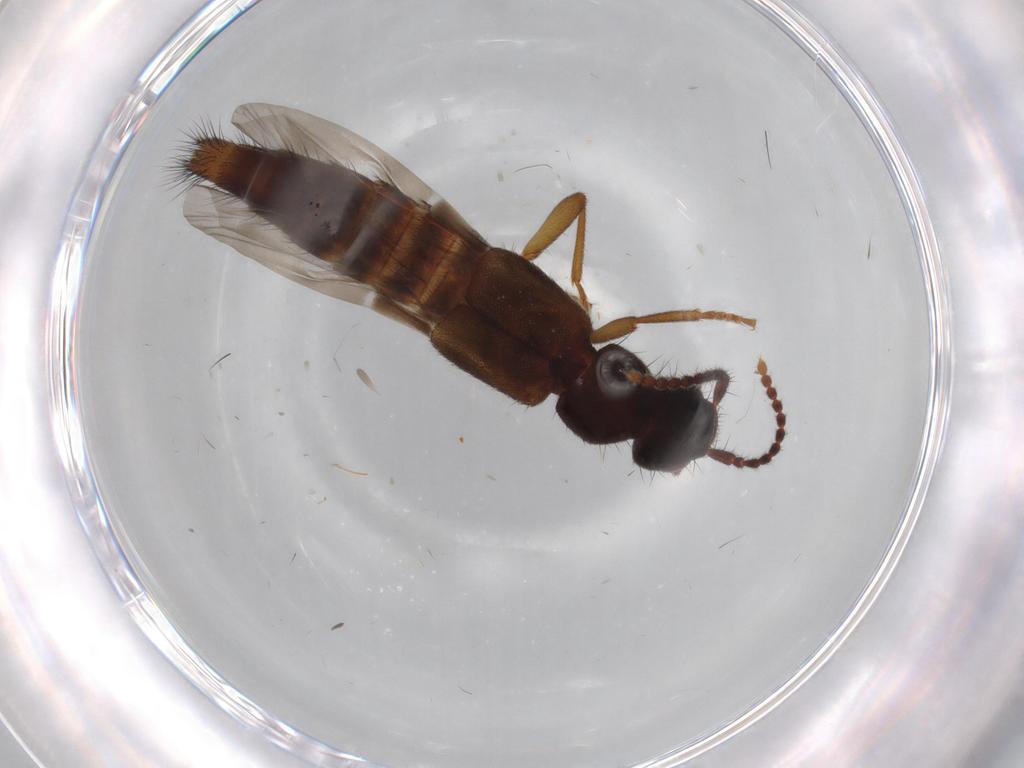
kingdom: Animalia
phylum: Arthropoda
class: Insecta
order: Coleoptera
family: Staphylinidae
